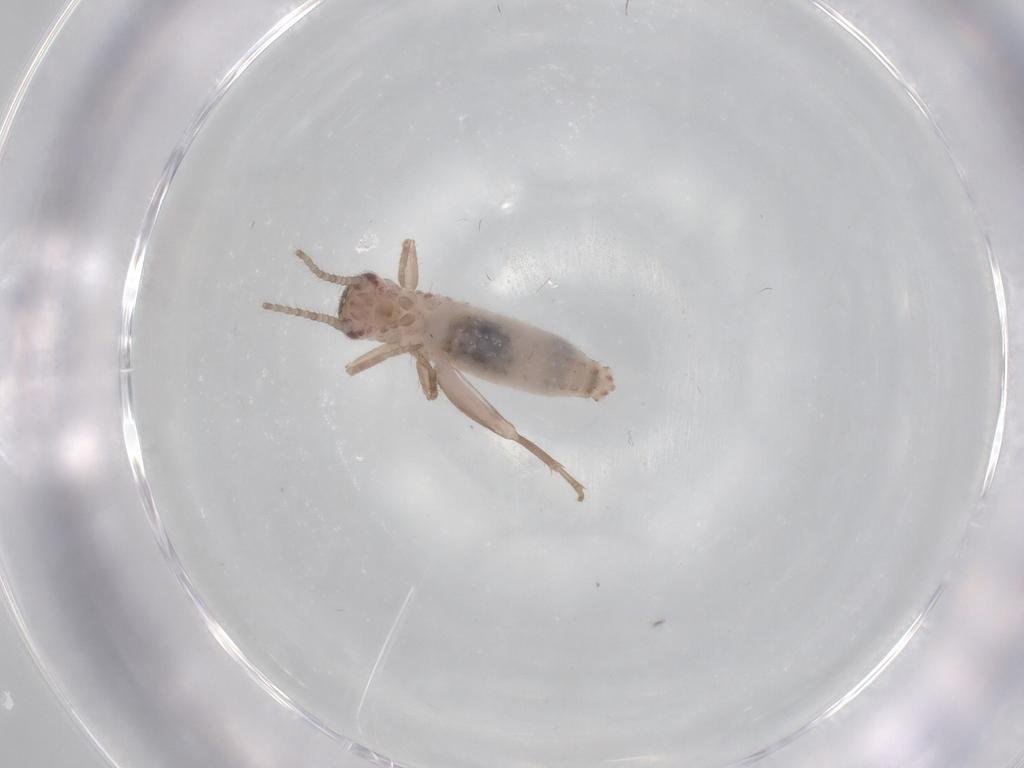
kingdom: Animalia
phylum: Arthropoda
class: Insecta
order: Orthoptera
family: Mogoplistidae
